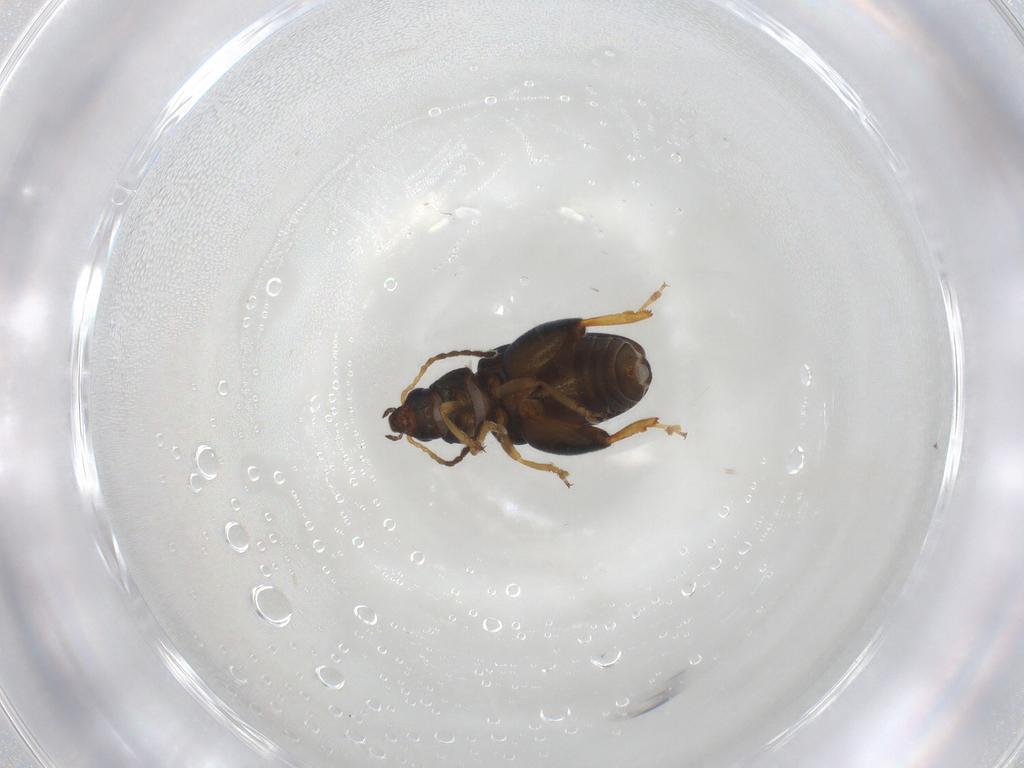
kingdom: Animalia
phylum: Arthropoda
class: Insecta
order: Coleoptera
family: Chrysomelidae
